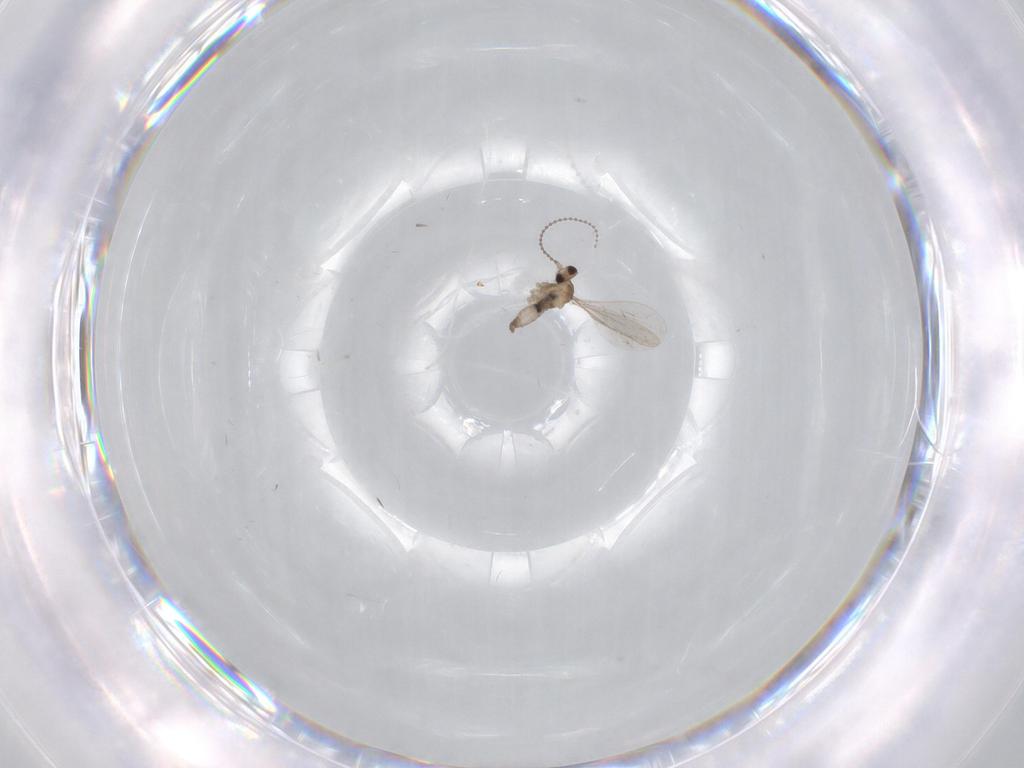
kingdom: Animalia
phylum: Arthropoda
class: Insecta
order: Diptera
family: Cecidomyiidae
